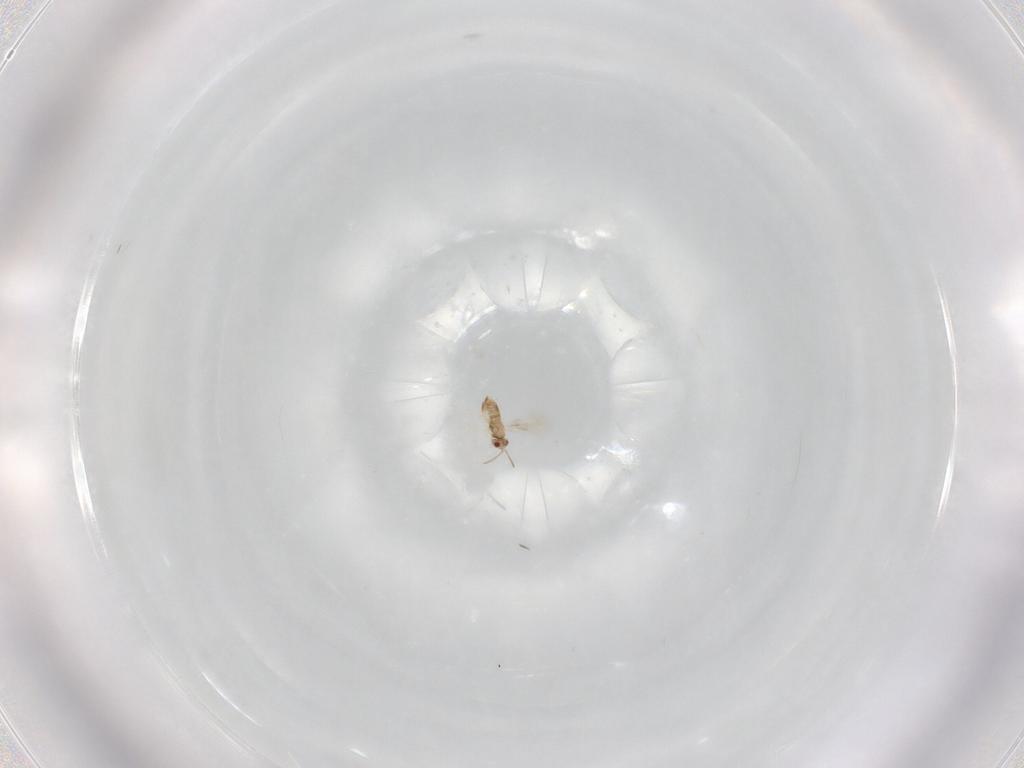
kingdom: Animalia
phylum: Arthropoda
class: Insecta
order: Hymenoptera
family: Aphelinidae
